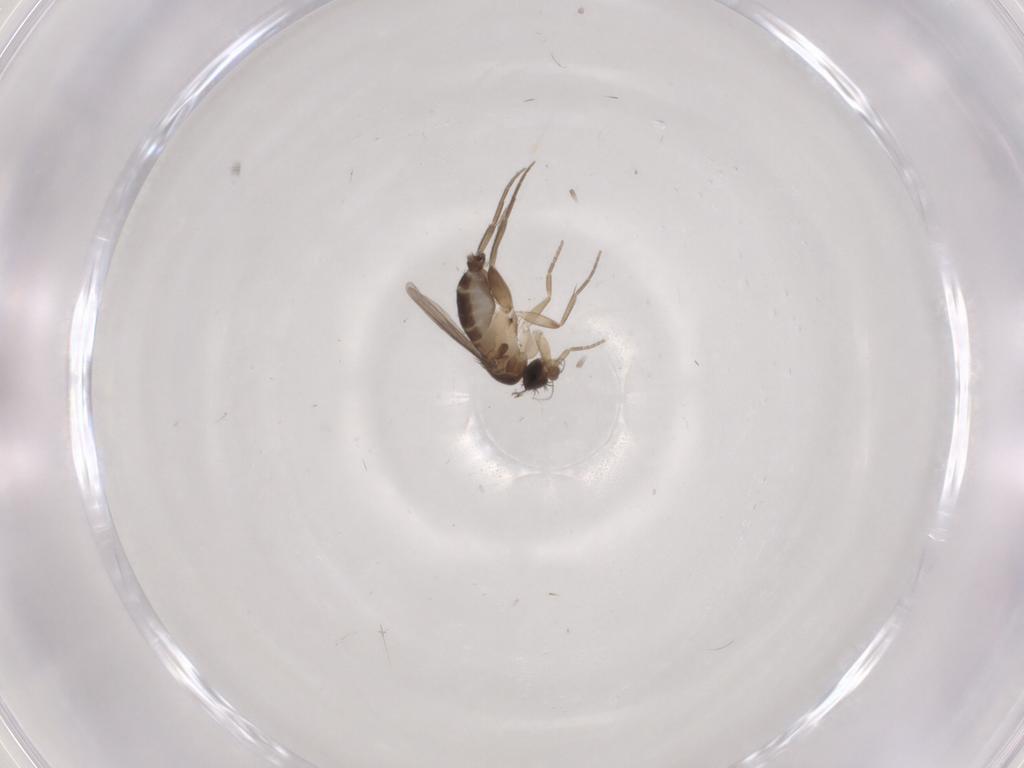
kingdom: Animalia
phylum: Arthropoda
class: Insecta
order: Diptera
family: Phoridae
